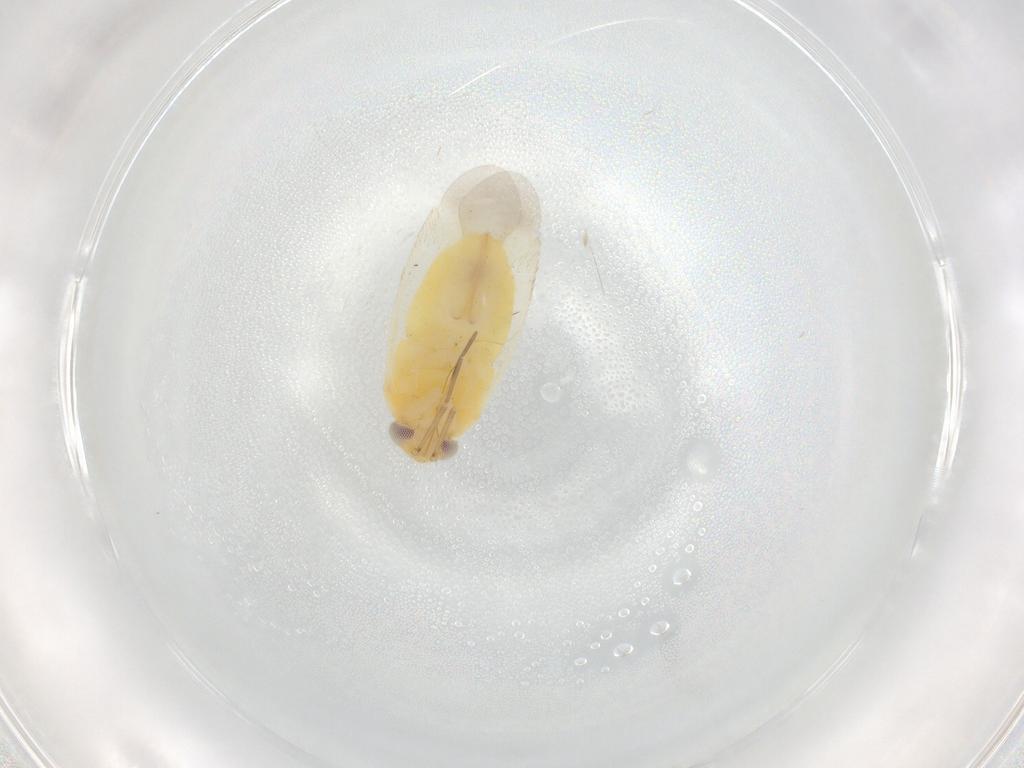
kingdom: Animalia
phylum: Arthropoda
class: Insecta
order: Hemiptera
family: Miridae
